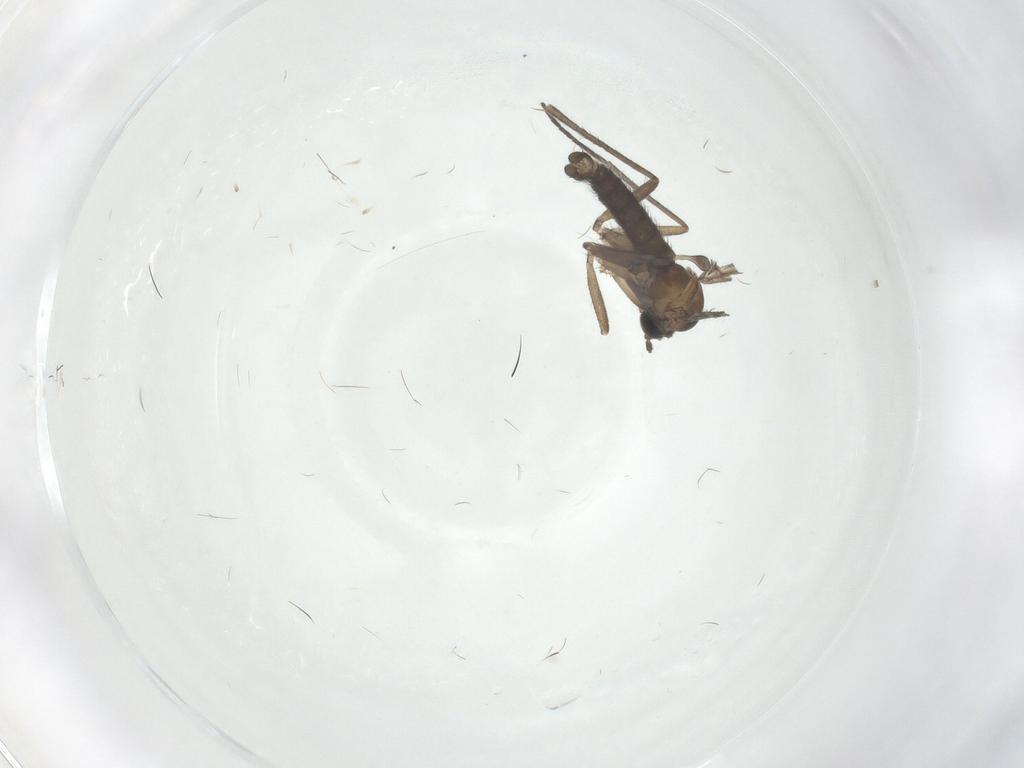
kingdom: Animalia
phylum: Arthropoda
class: Insecta
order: Diptera
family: Sciaridae
